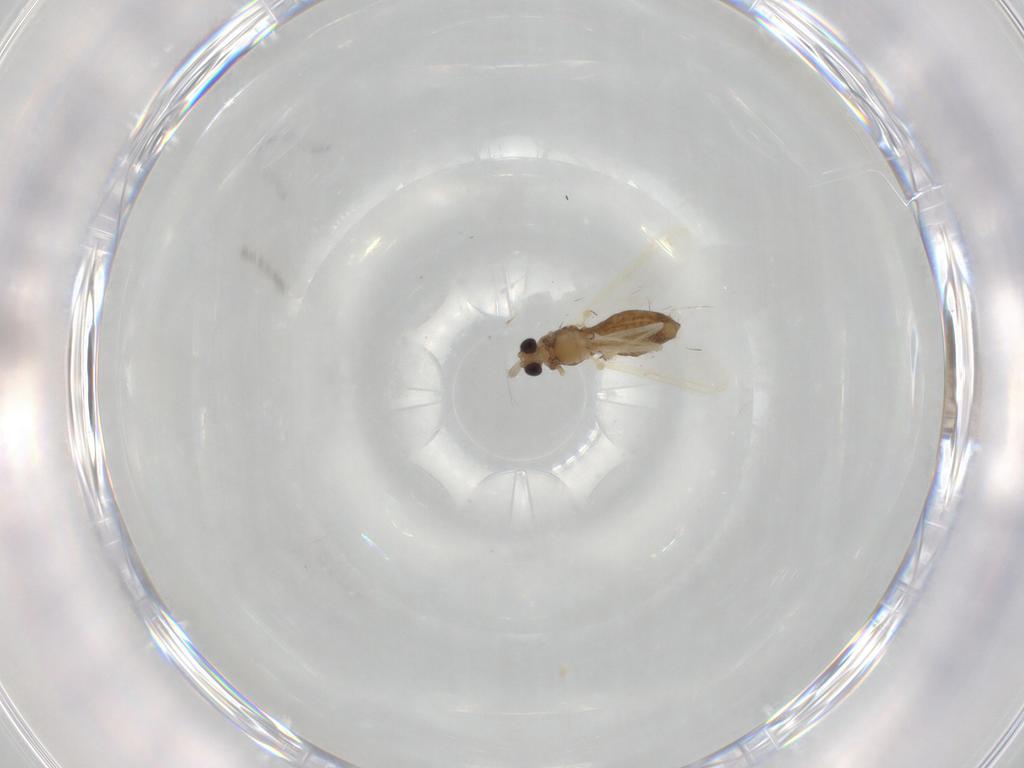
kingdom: Animalia
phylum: Arthropoda
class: Insecta
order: Diptera
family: Chironomidae
